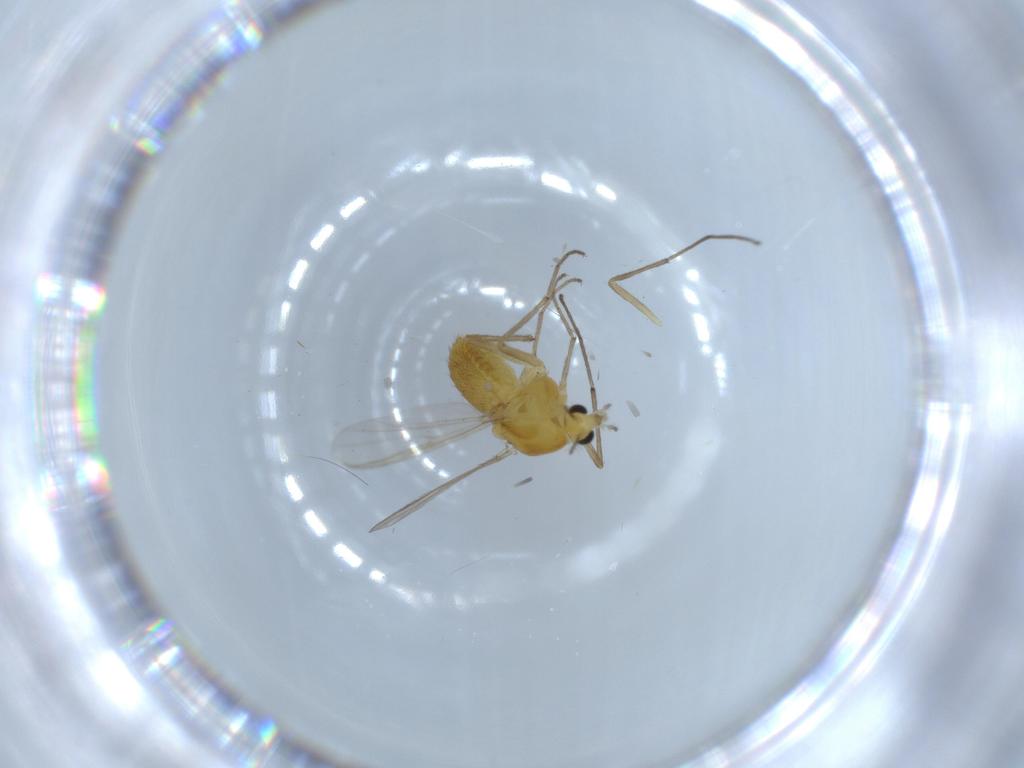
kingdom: Animalia
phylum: Arthropoda
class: Insecta
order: Diptera
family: Chironomidae
